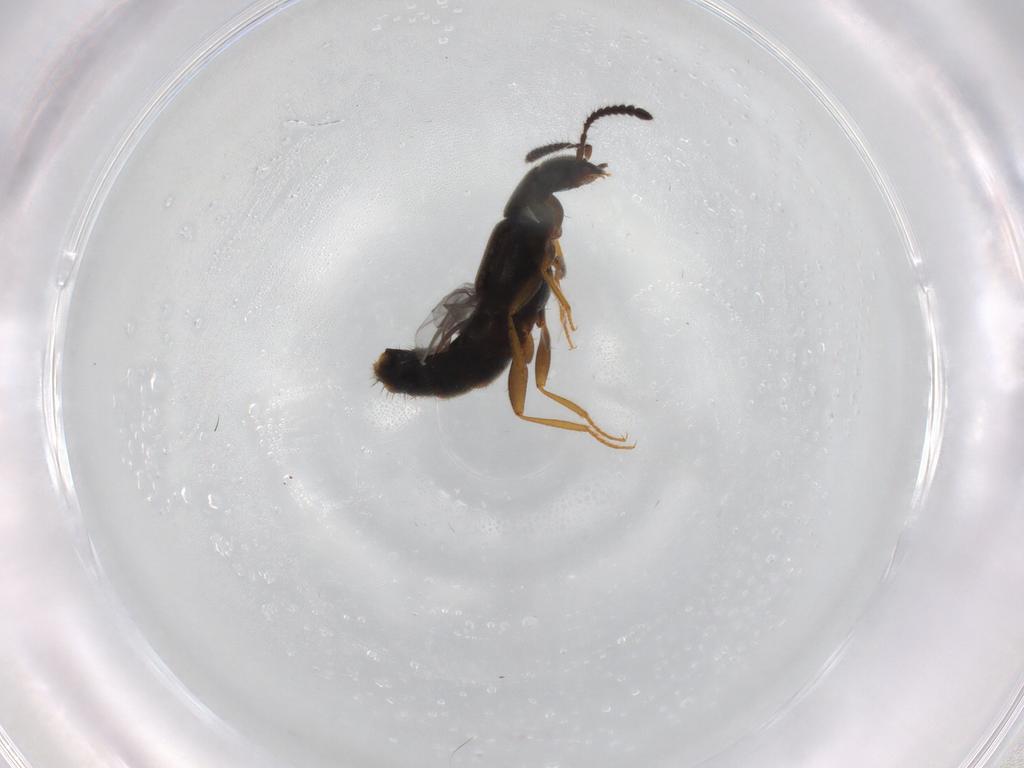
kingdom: Animalia
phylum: Arthropoda
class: Insecta
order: Coleoptera
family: Staphylinidae
